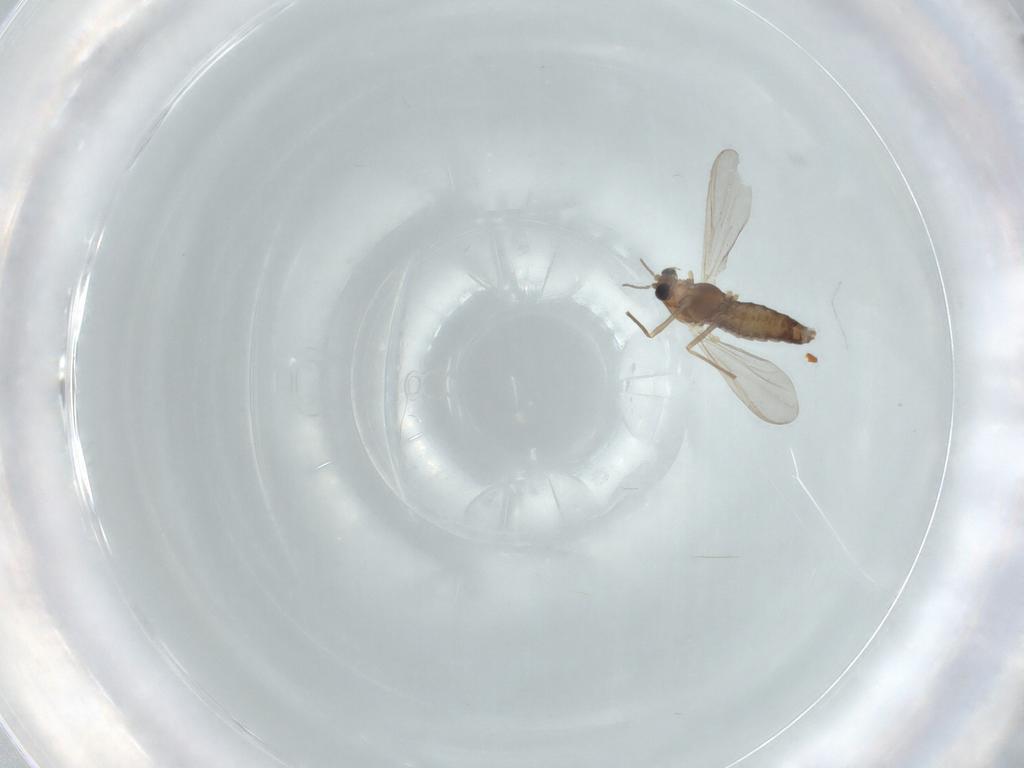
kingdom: Animalia
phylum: Arthropoda
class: Insecta
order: Diptera
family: Chironomidae
